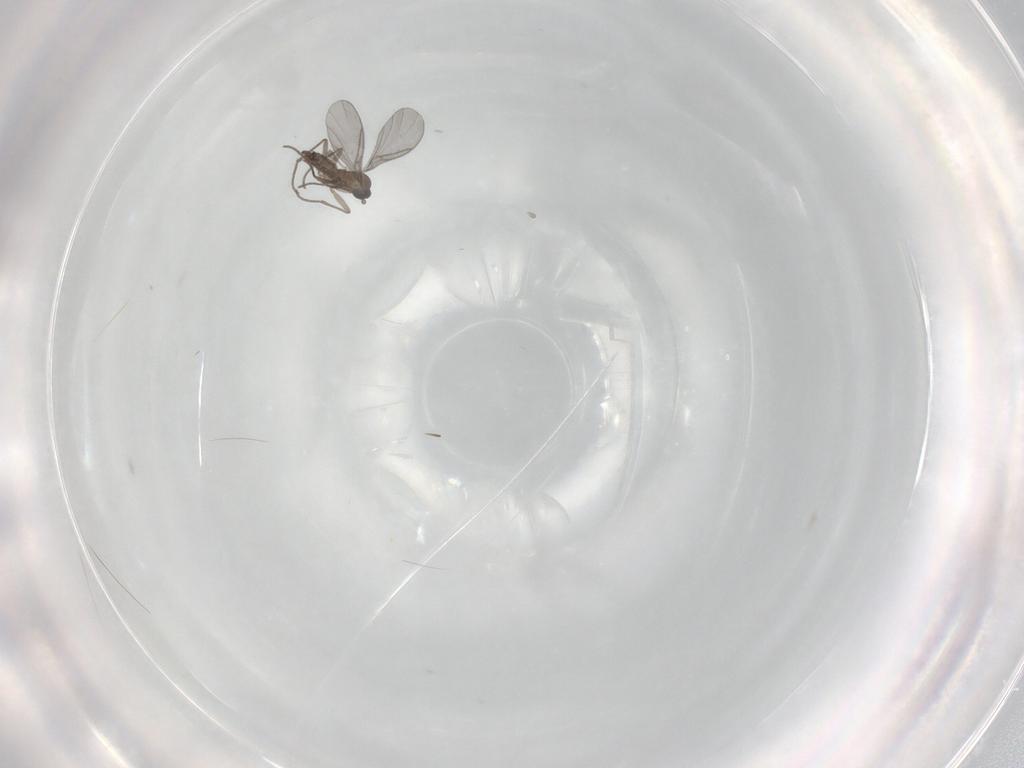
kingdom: Animalia
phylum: Arthropoda
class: Insecta
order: Diptera
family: Sciaridae
